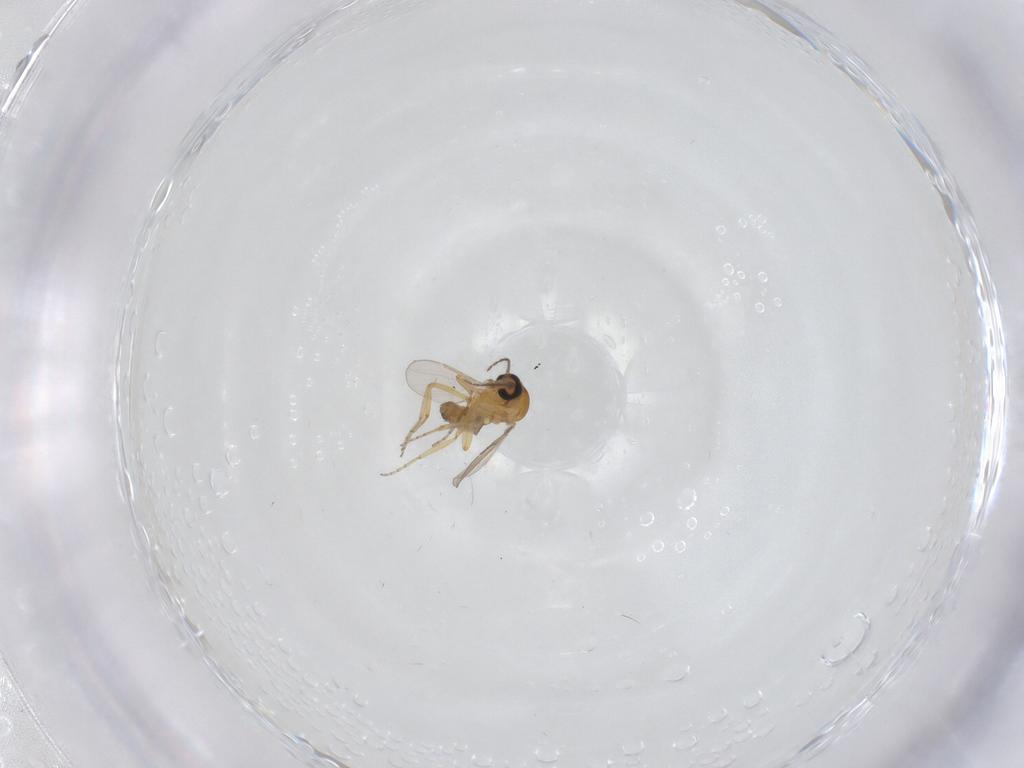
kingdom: Animalia
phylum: Arthropoda
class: Insecta
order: Diptera
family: Ceratopogonidae
